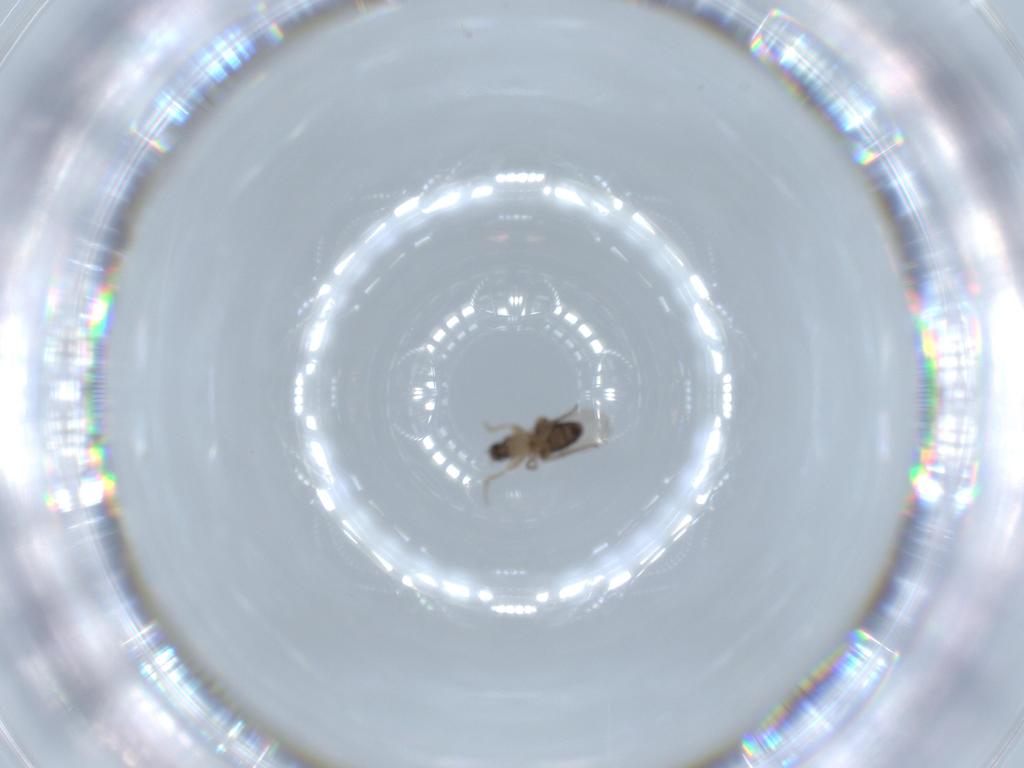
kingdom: Animalia
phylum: Arthropoda
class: Insecta
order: Diptera
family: Phoridae
